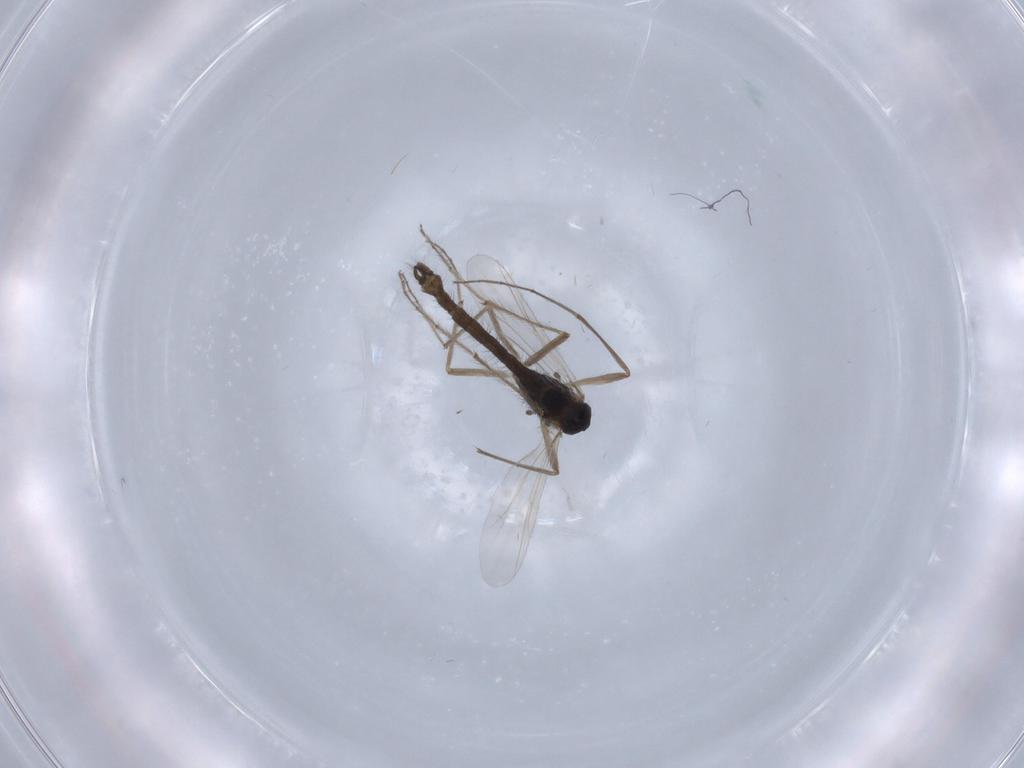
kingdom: Animalia
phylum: Arthropoda
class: Insecta
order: Diptera
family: Chironomidae
